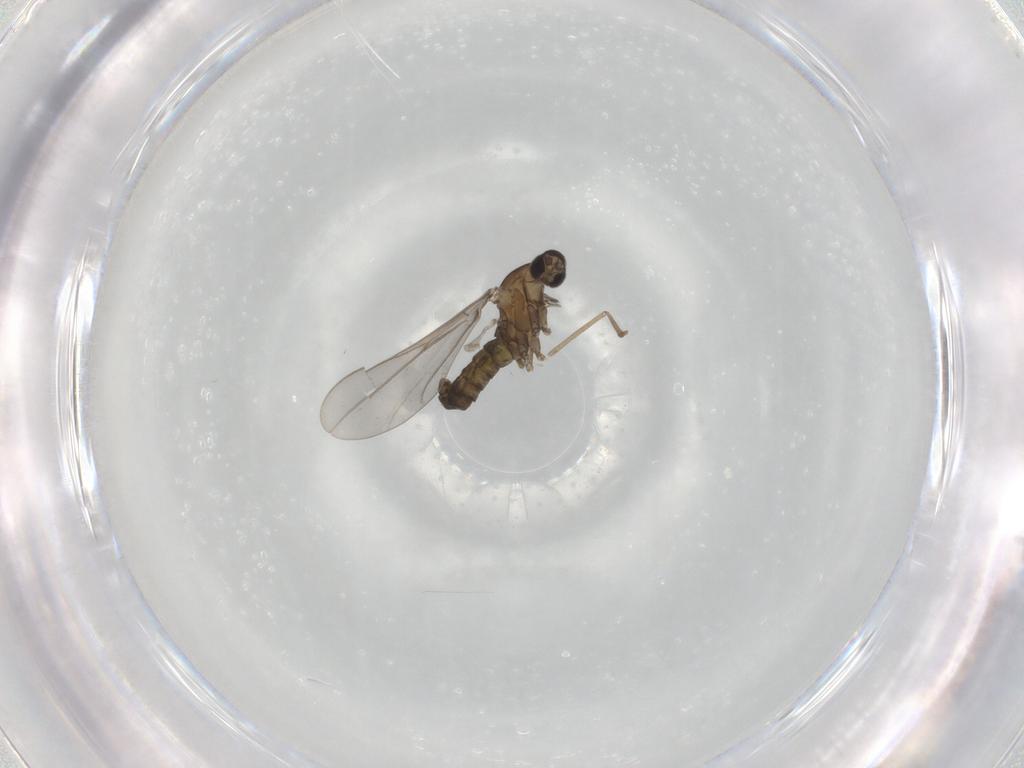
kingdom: Animalia
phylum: Arthropoda
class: Insecta
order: Diptera
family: Cecidomyiidae
